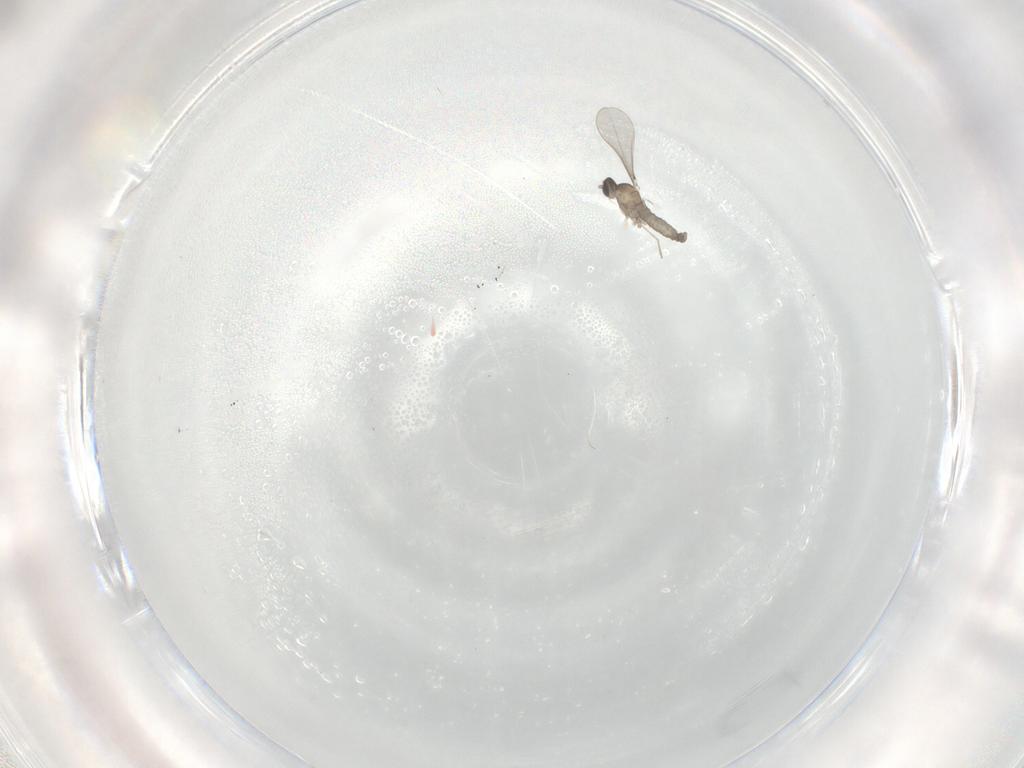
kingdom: Animalia
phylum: Arthropoda
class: Insecta
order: Diptera
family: Cecidomyiidae
